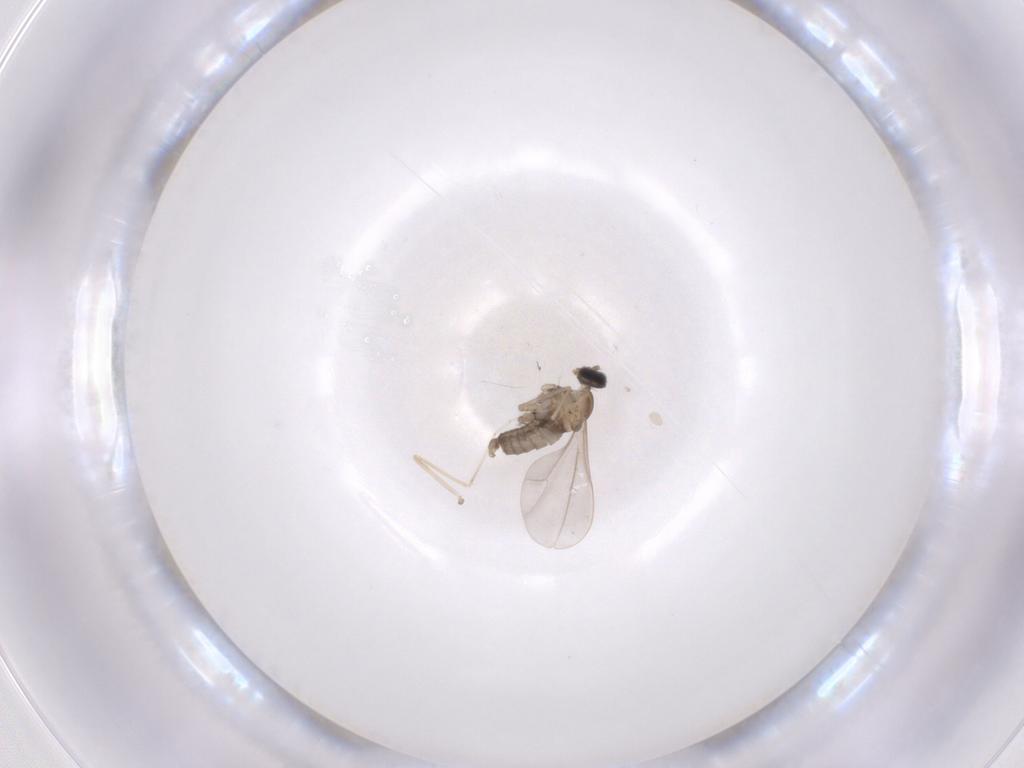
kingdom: Animalia
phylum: Arthropoda
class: Insecta
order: Diptera
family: Cecidomyiidae
